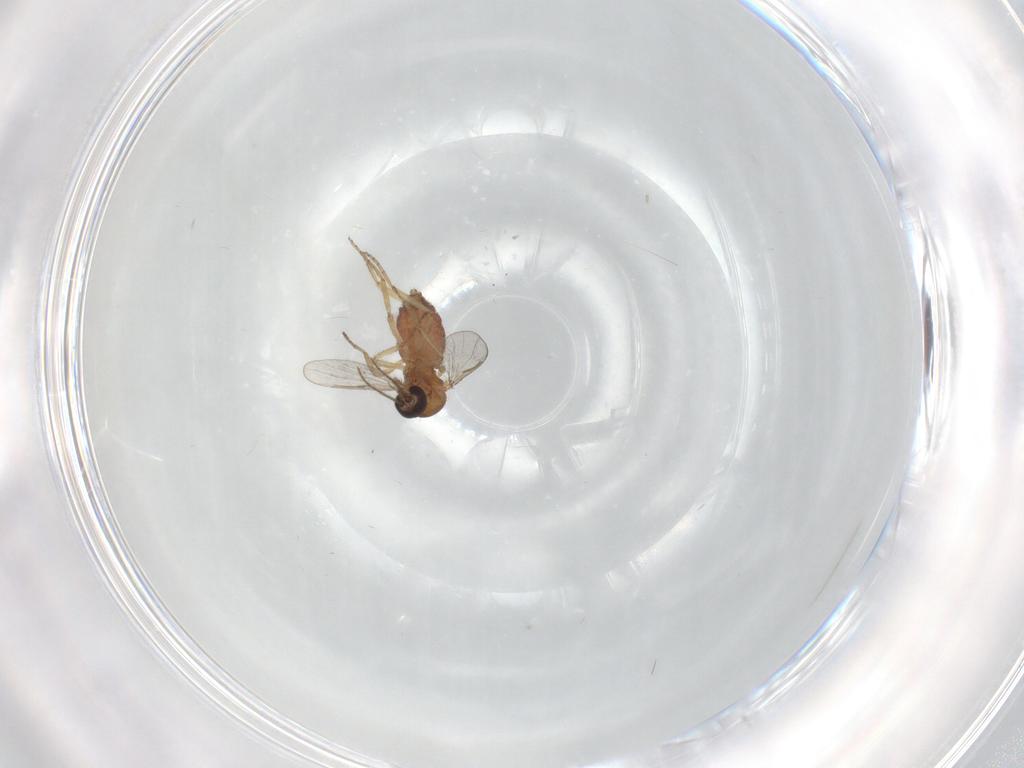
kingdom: Animalia
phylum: Arthropoda
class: Insecta
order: Diptera
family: Ceratopogonidae
